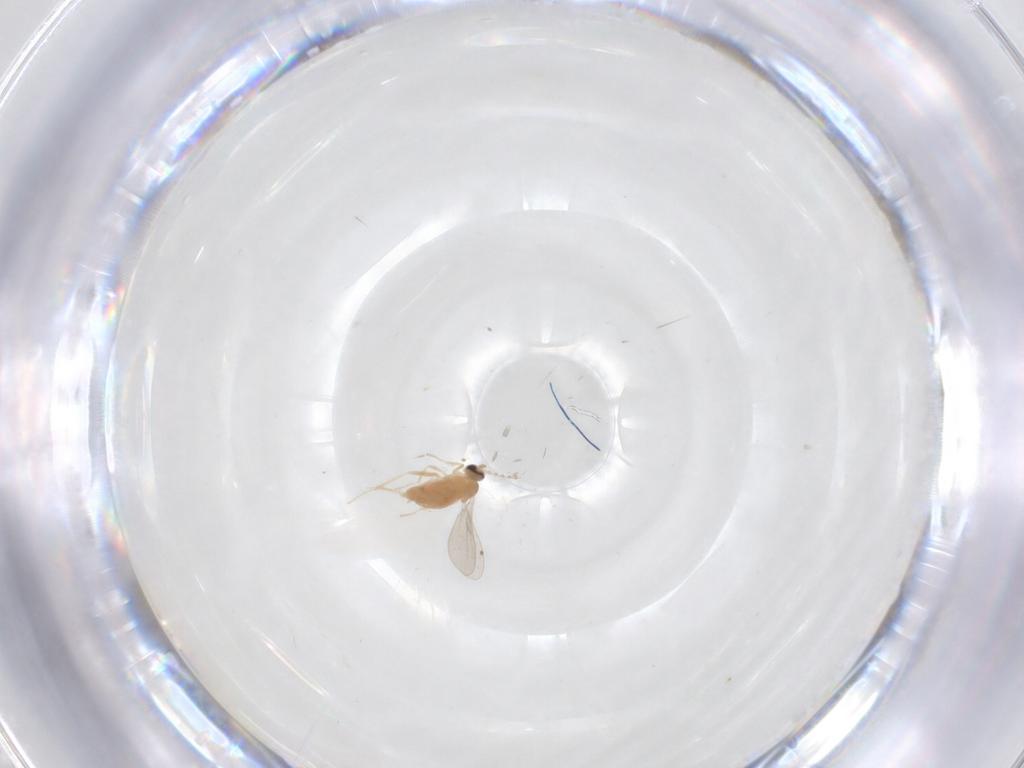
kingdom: Animalia
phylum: Arthropoda
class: Insecta
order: Diptera
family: Cecidomyiidae
